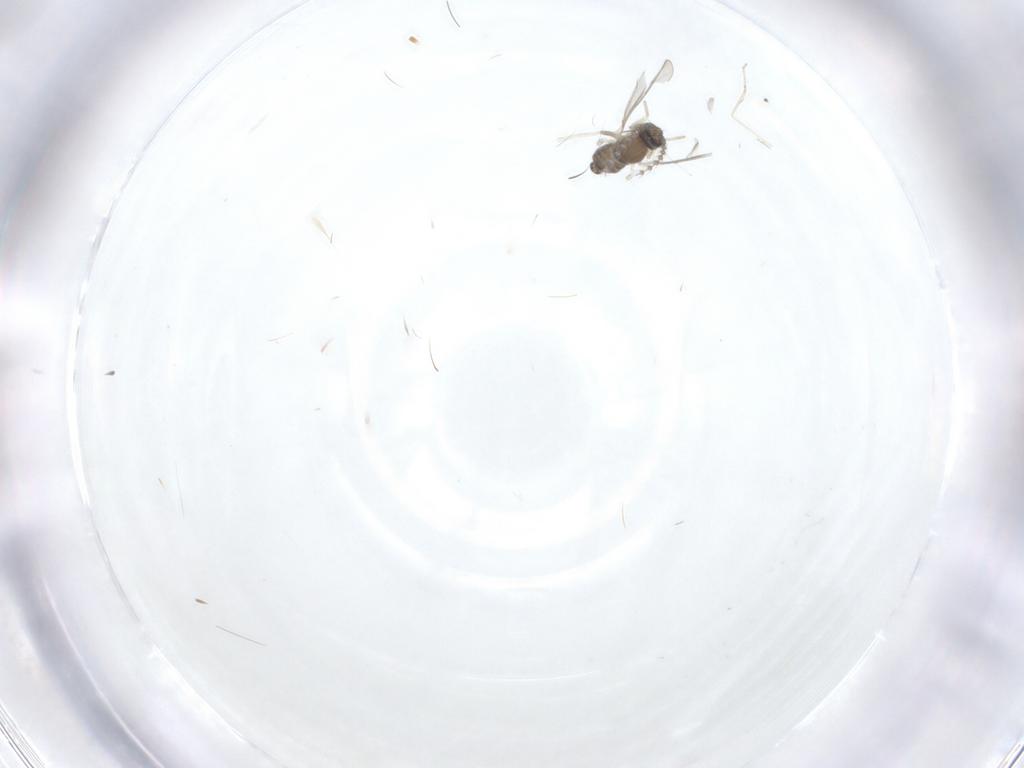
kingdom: Animalia
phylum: Arthropoda
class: Insecta
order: Diptera
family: Cecidomyiidae
